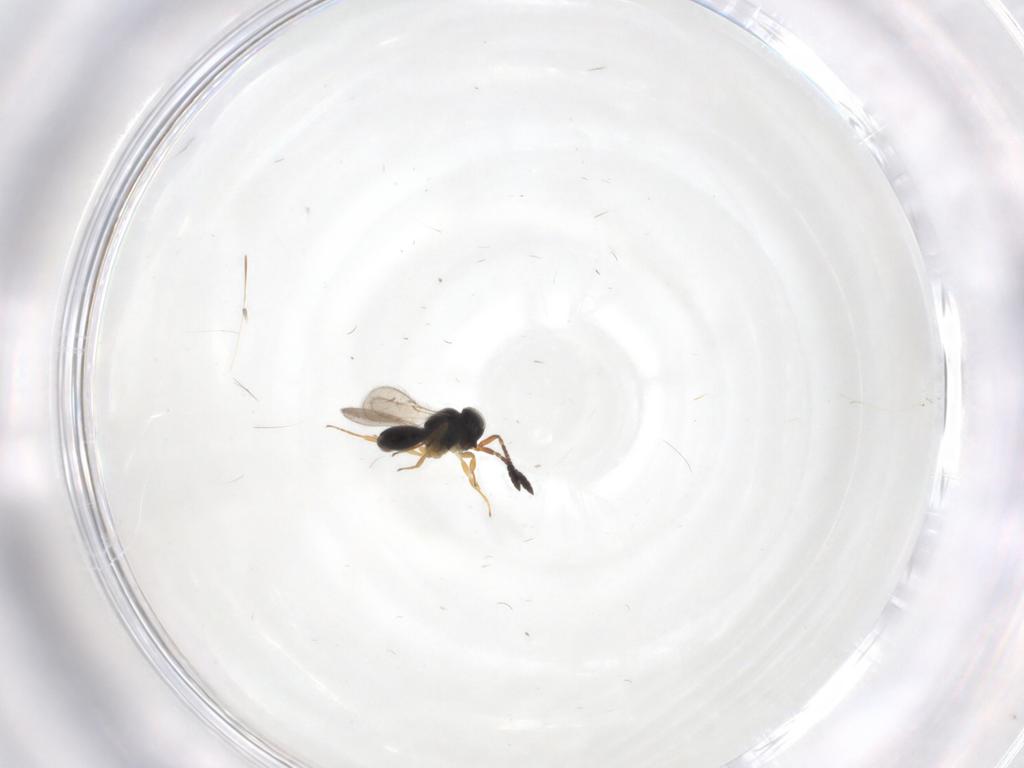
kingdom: Animalia
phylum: Arthropoda
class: Insecta
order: Hymenoptera
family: Scelionidae
